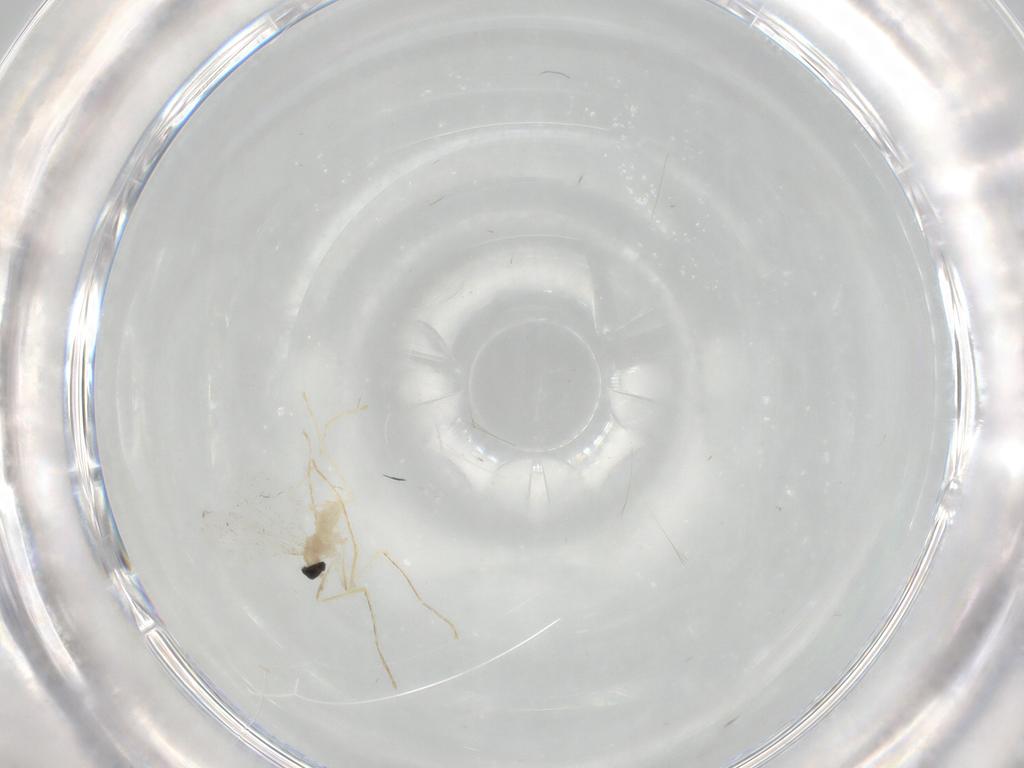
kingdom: Animalia
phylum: Arthropoda
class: Insecta
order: Diptera
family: Cecidomyiidae
